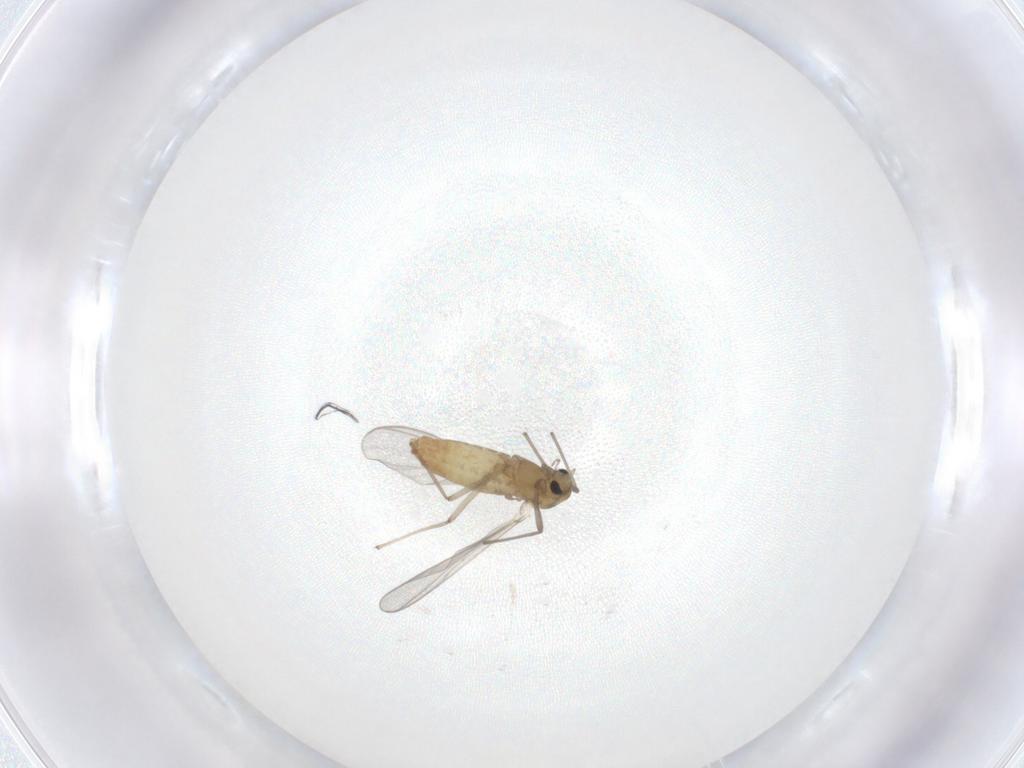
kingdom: Animalia
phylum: Arthropoda
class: Insecta
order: Diptera
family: Chironomidae
